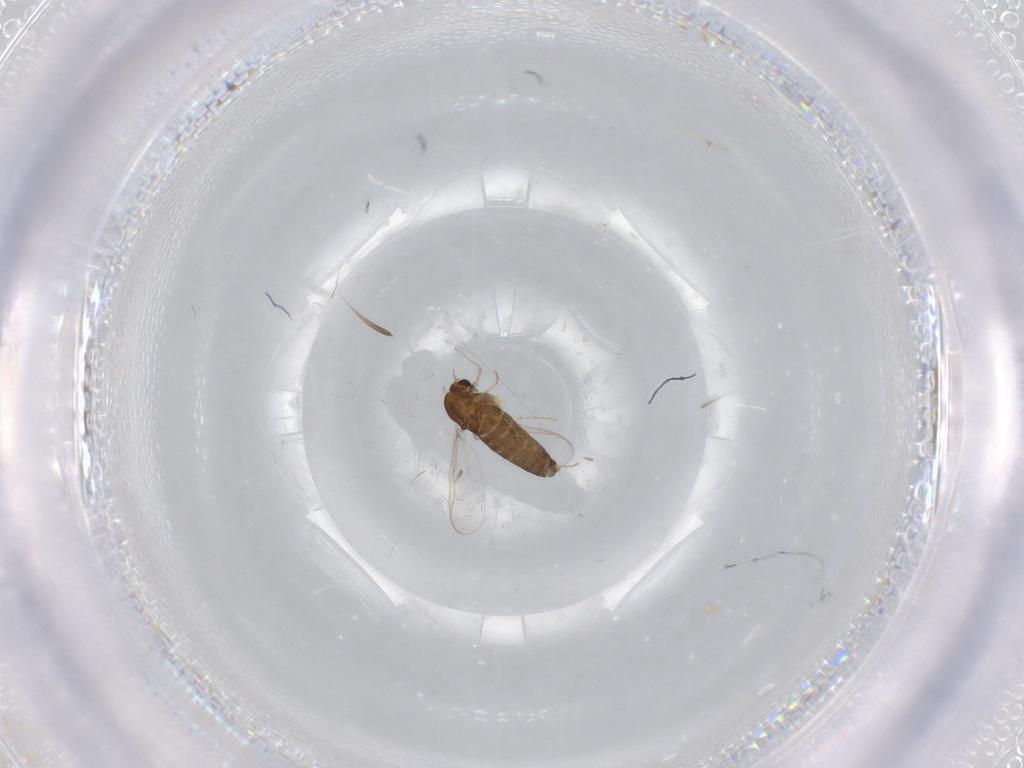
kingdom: Animalia
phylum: Arthropoda
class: Insecta
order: Diptera
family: Chironomidae
